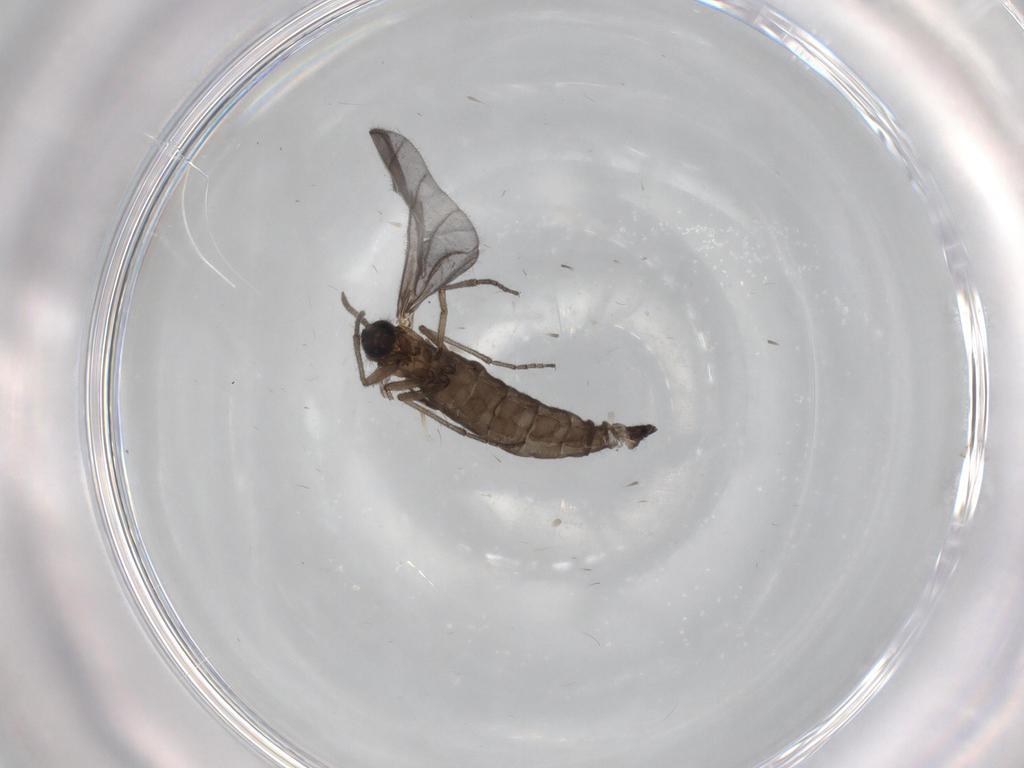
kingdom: Animalia
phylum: Arthropoda
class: Insecta
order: Diptera
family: Sciaridae
